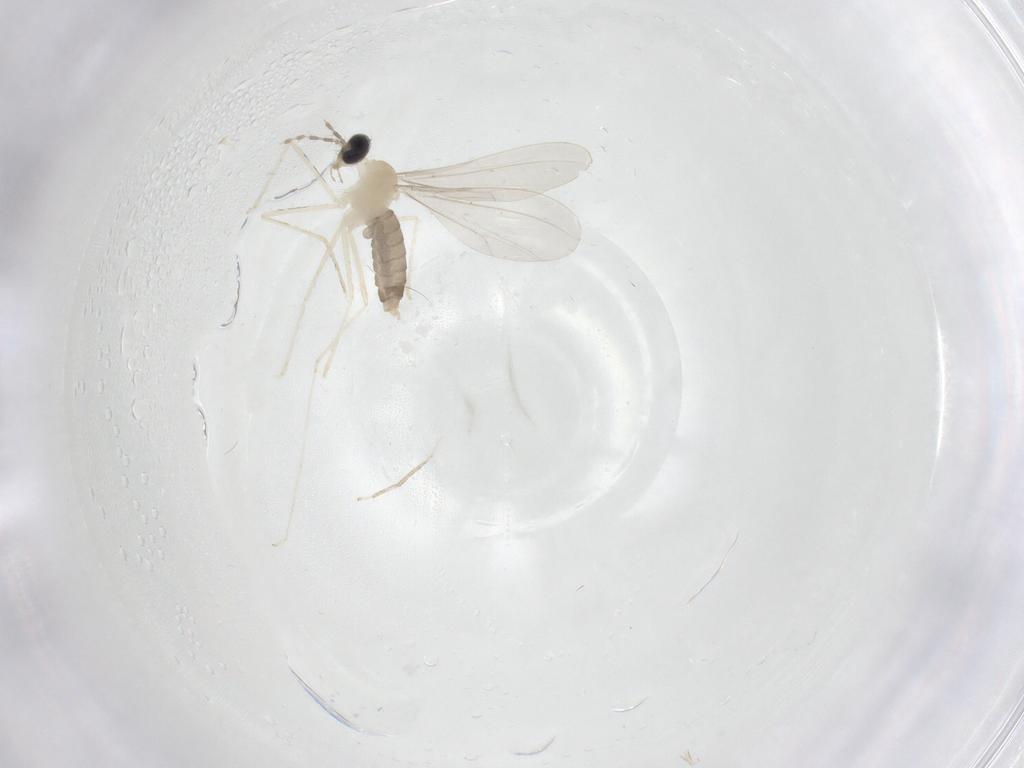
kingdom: Animalia
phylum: Arthropoda
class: Insecta
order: Diptera
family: Cecidomyiidae
